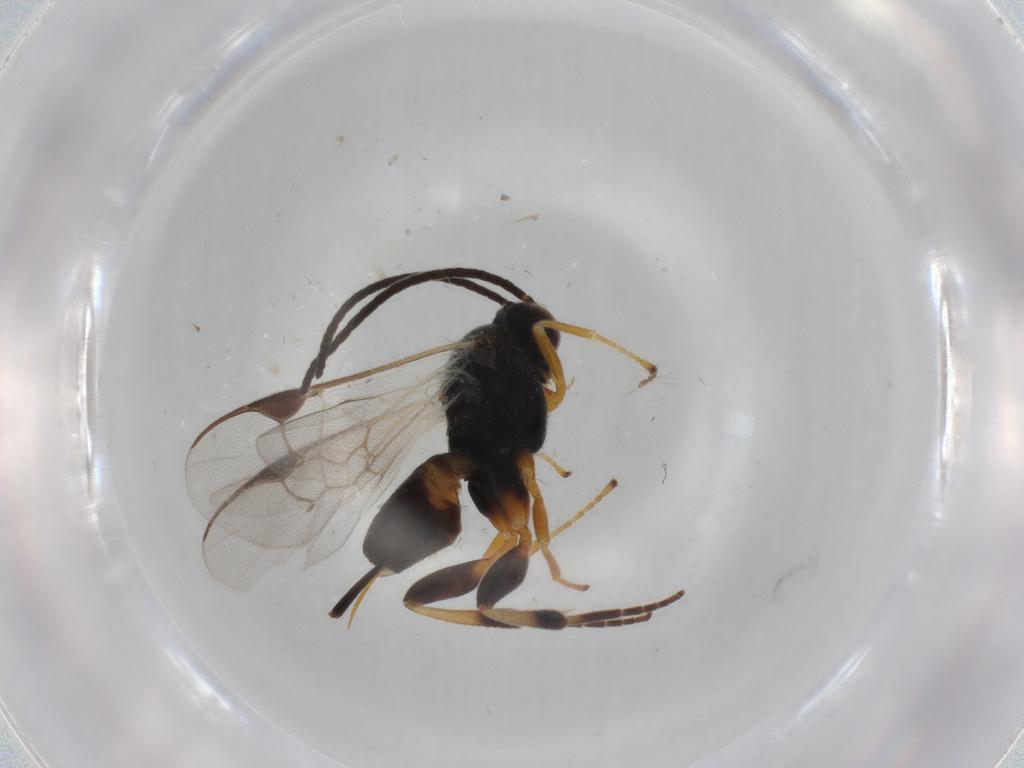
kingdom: Animalia
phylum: Arthropoda
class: Insecta
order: Hymenoptera
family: Braconidae
